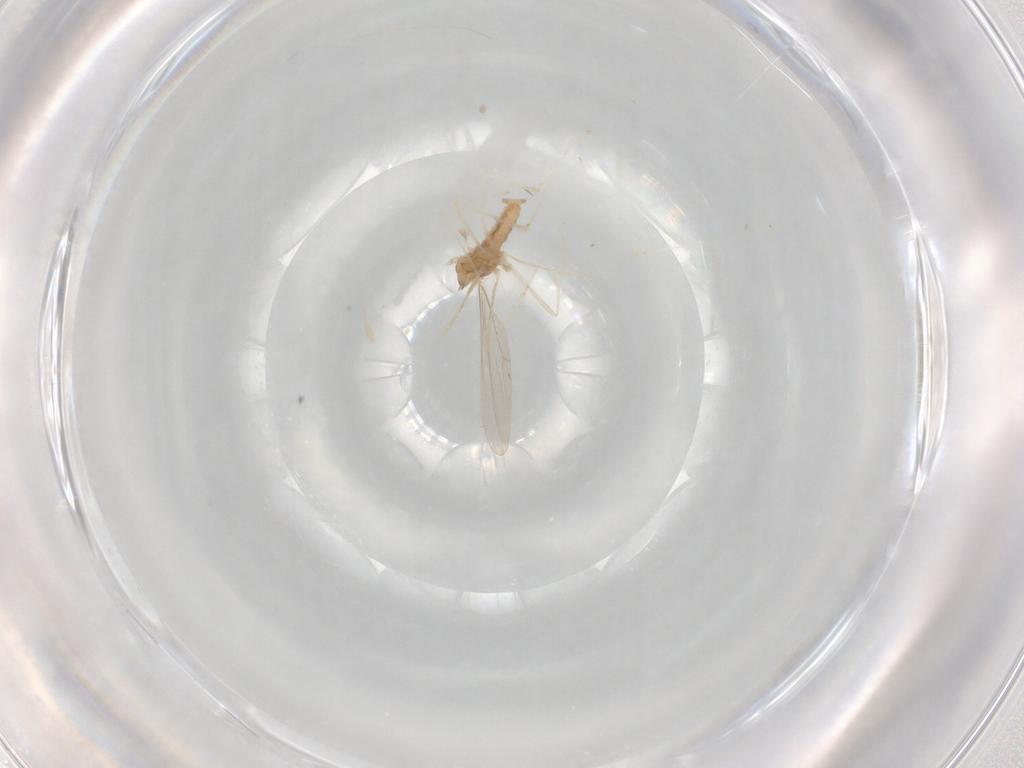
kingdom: Animalia
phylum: Arthropoda
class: Insecta
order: Diptera
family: Cecidomyiidae
